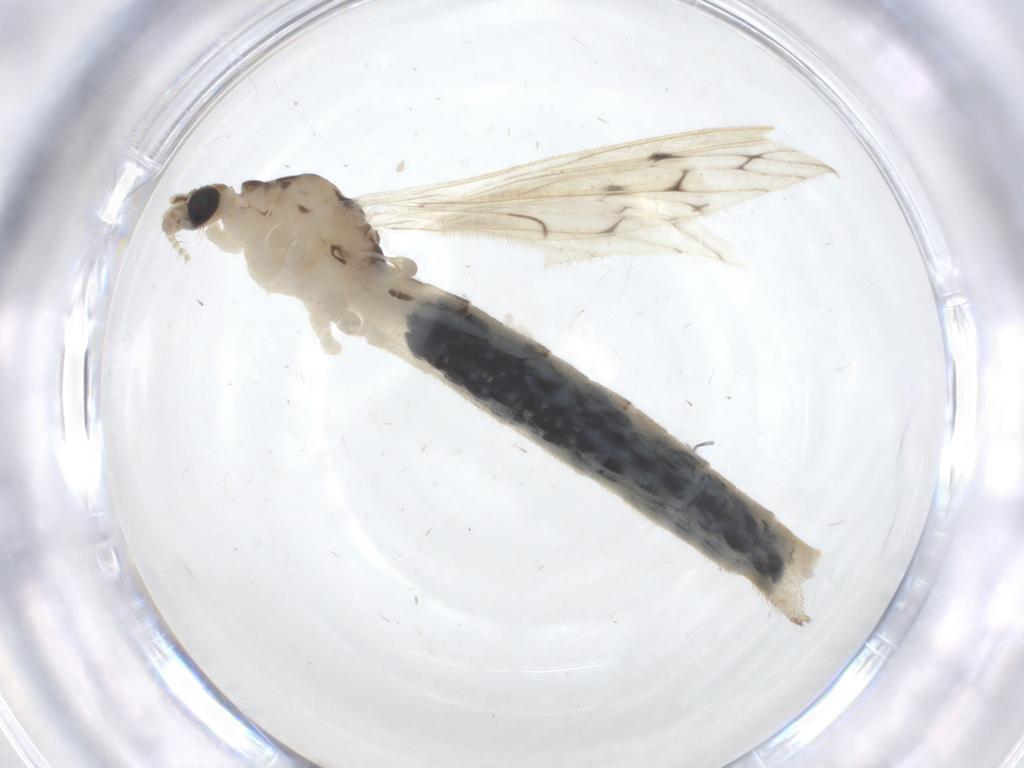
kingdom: Animalia
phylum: Arthropoda
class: Insecta
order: Diptera
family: Limoniidae
